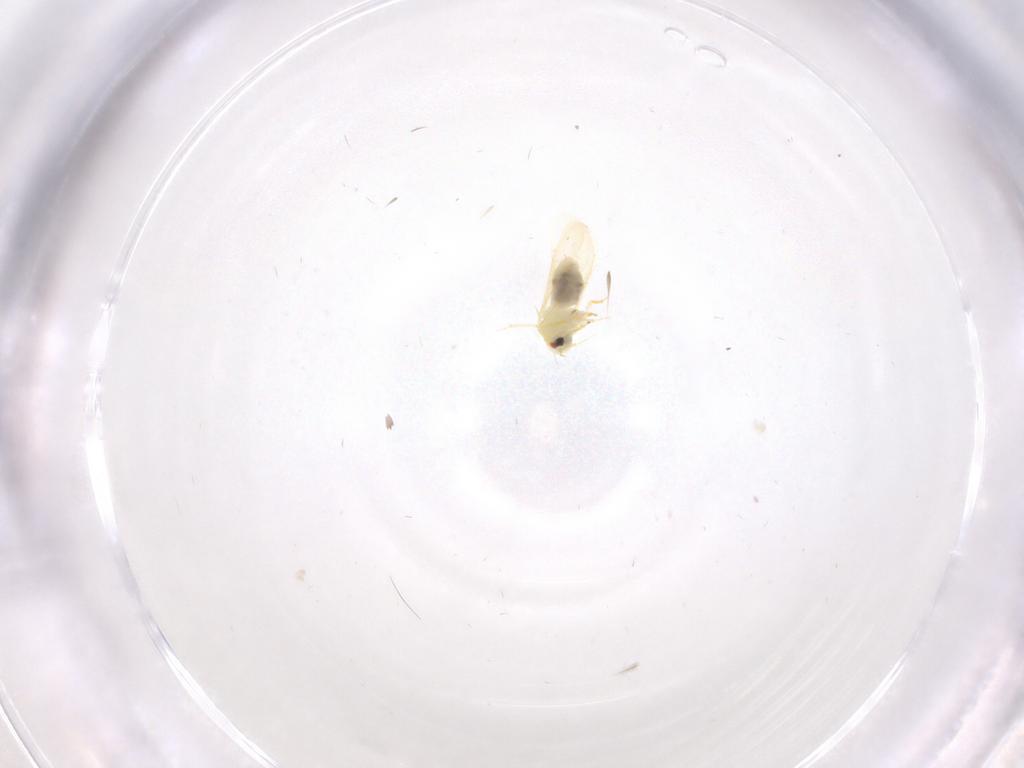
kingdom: Animalia
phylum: Arthropoda
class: Insecta
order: Hemiptera
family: Aleyrodidae
